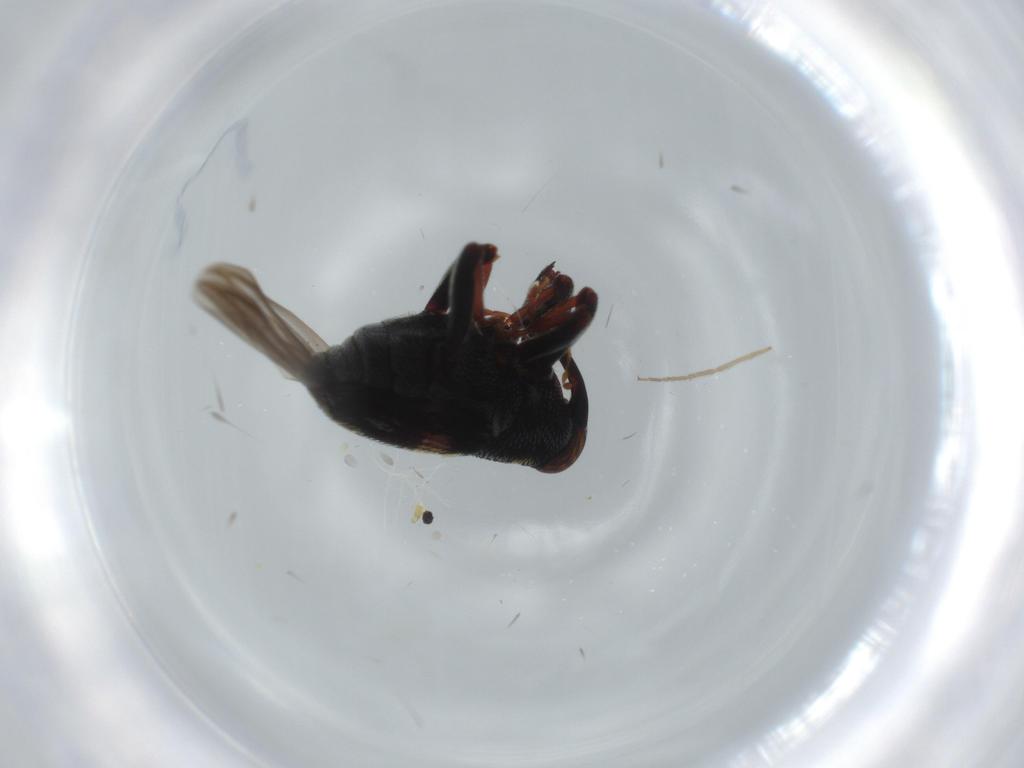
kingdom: Animalia
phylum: Arthropoda
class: Insecta
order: Coleoptera
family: Curculionidae
